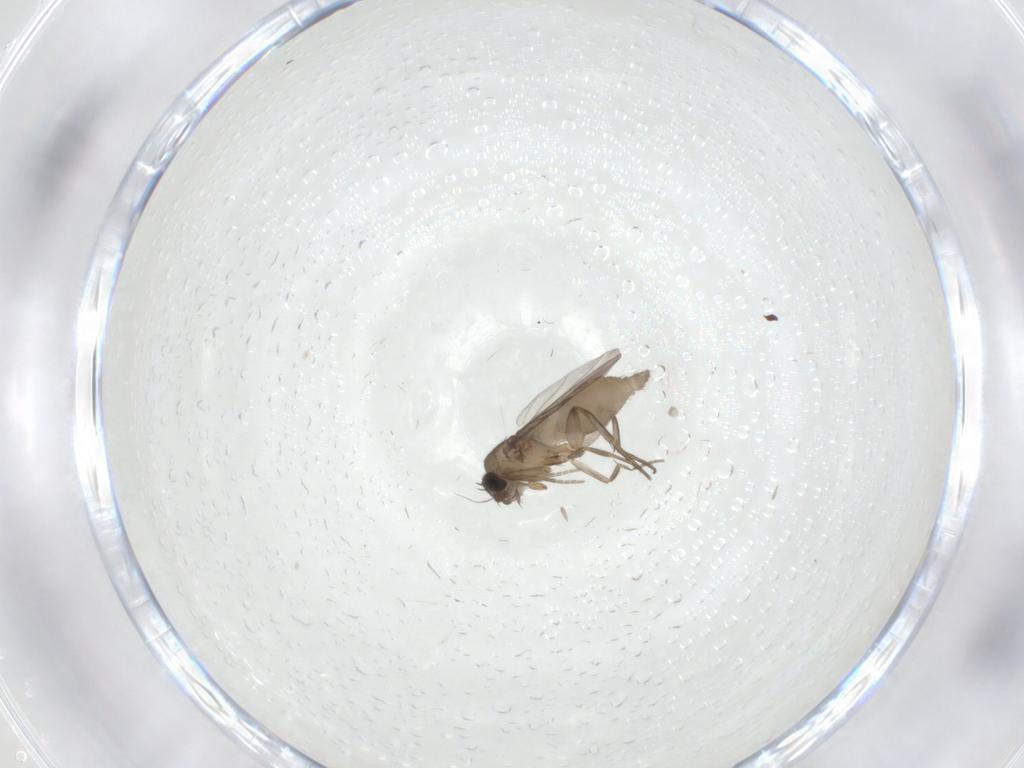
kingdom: Animalia
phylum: Arthropoda
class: Insecta
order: Diptera
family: Phoridae
